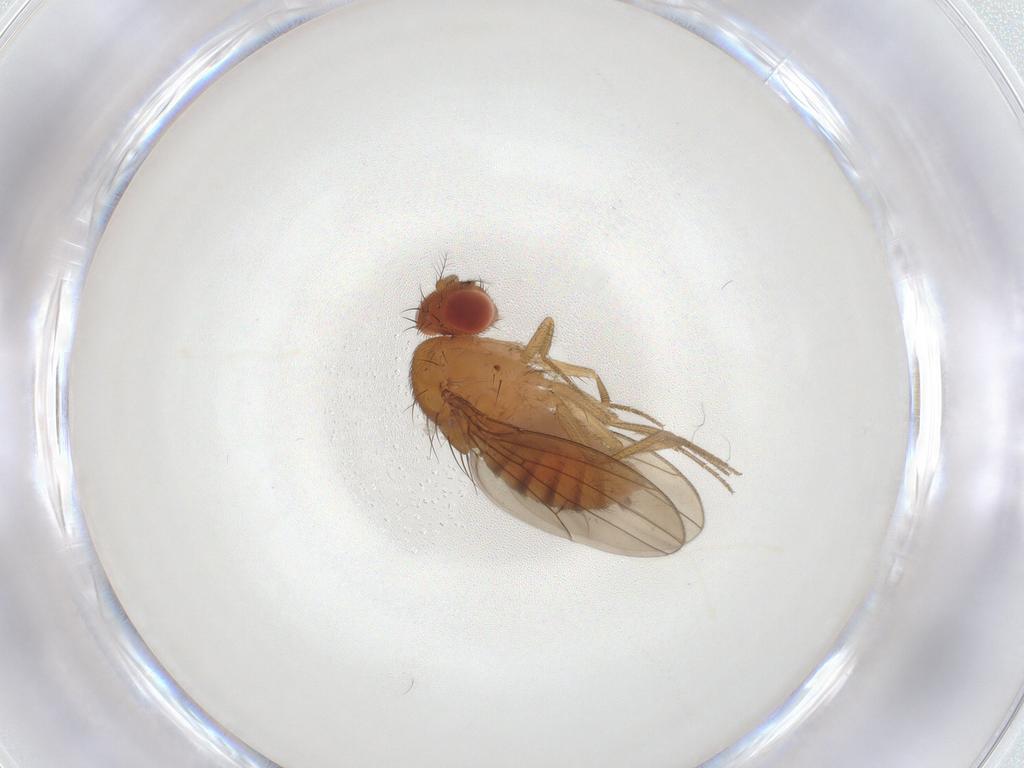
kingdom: Animalia
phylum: Arthropoda
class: Insecta
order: Diptera
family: Drosophilidae
